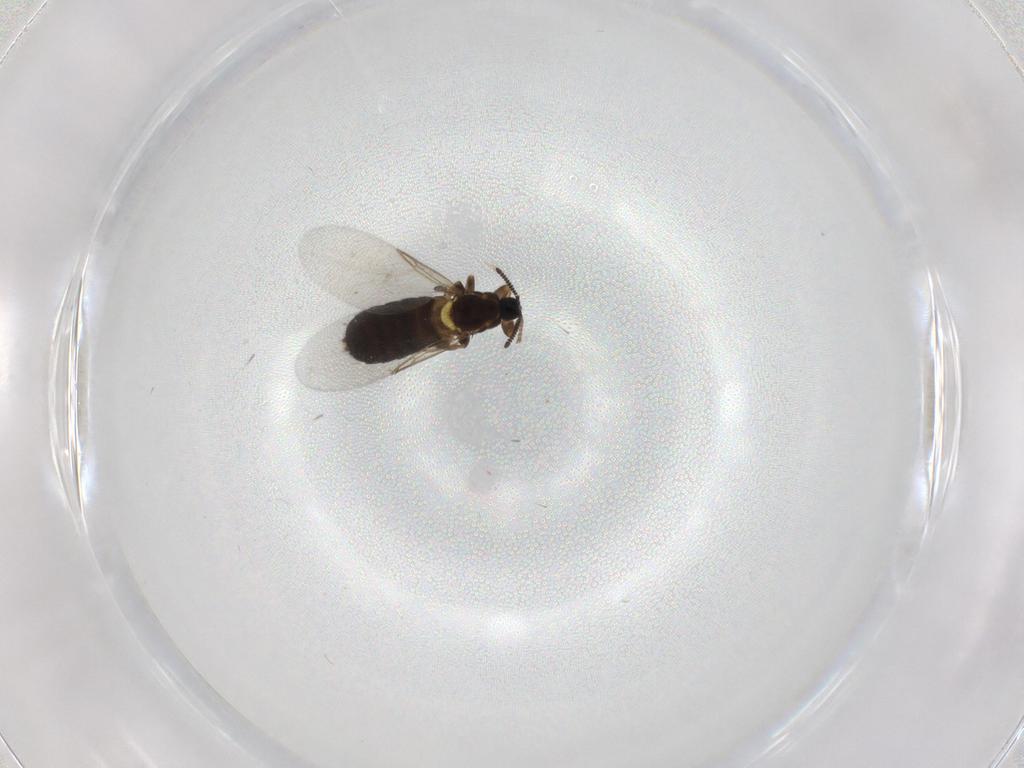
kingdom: Animalia
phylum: Arthropoda
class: Insecta
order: Diptera
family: Scatopsidae
